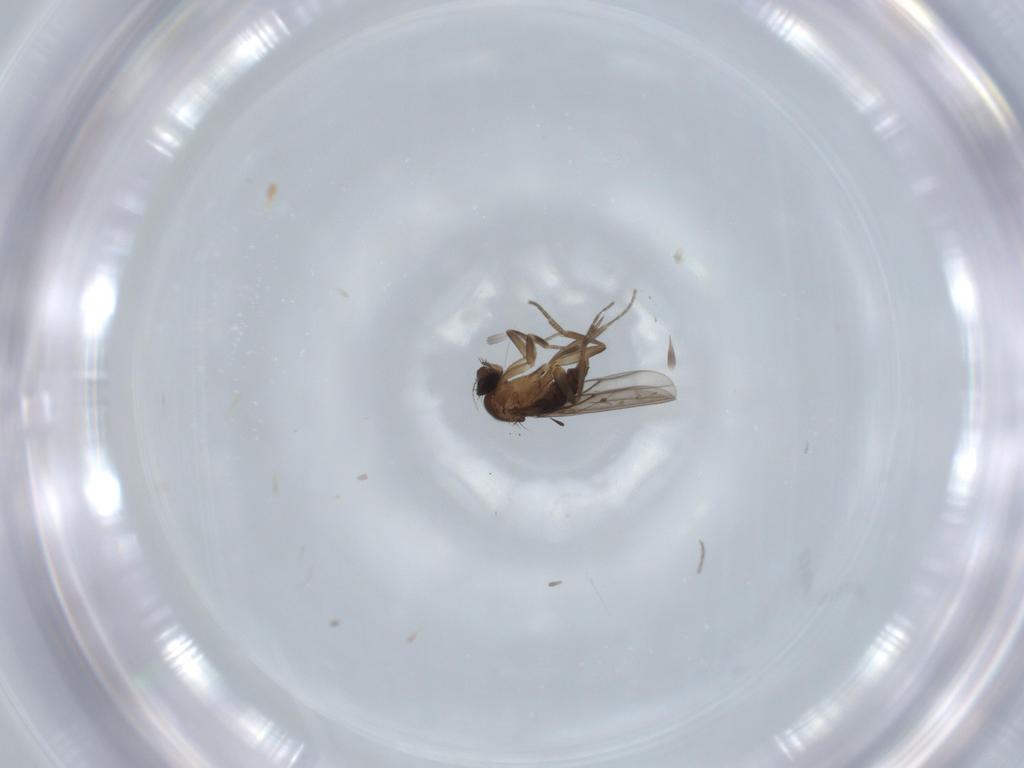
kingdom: Animalia
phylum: Arthropoda
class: Insecta
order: Diptera
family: Phoridae
